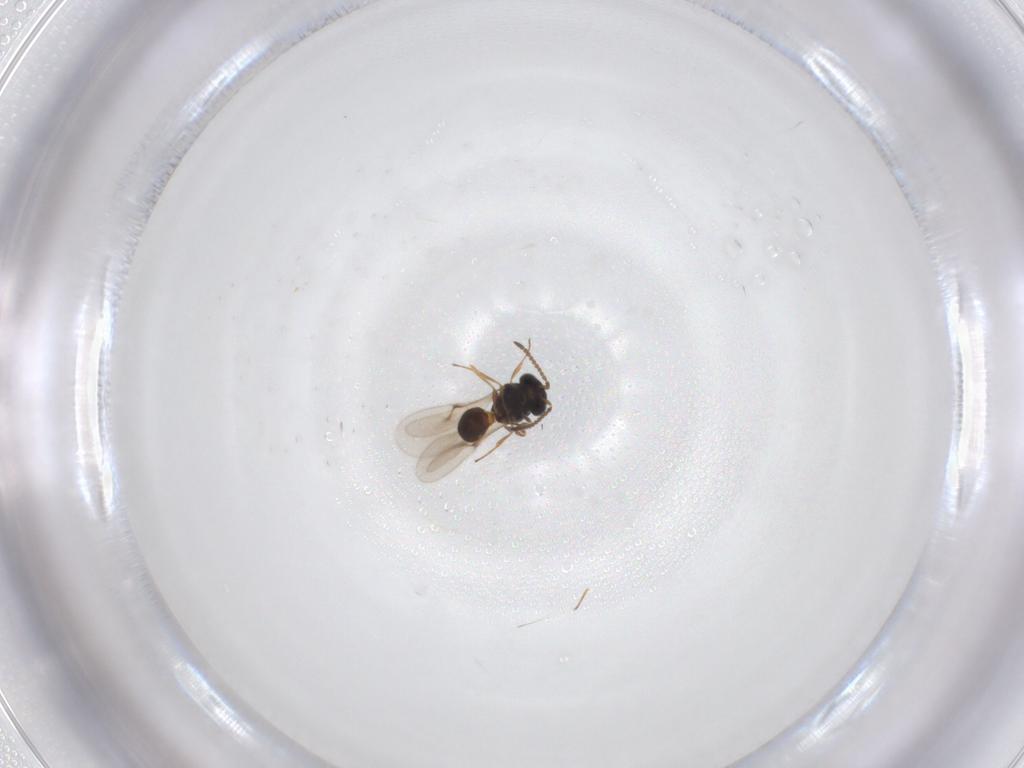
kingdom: Animalia
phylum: Arthropoda
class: Insecta
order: Hymenoptera
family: Scelionidae
